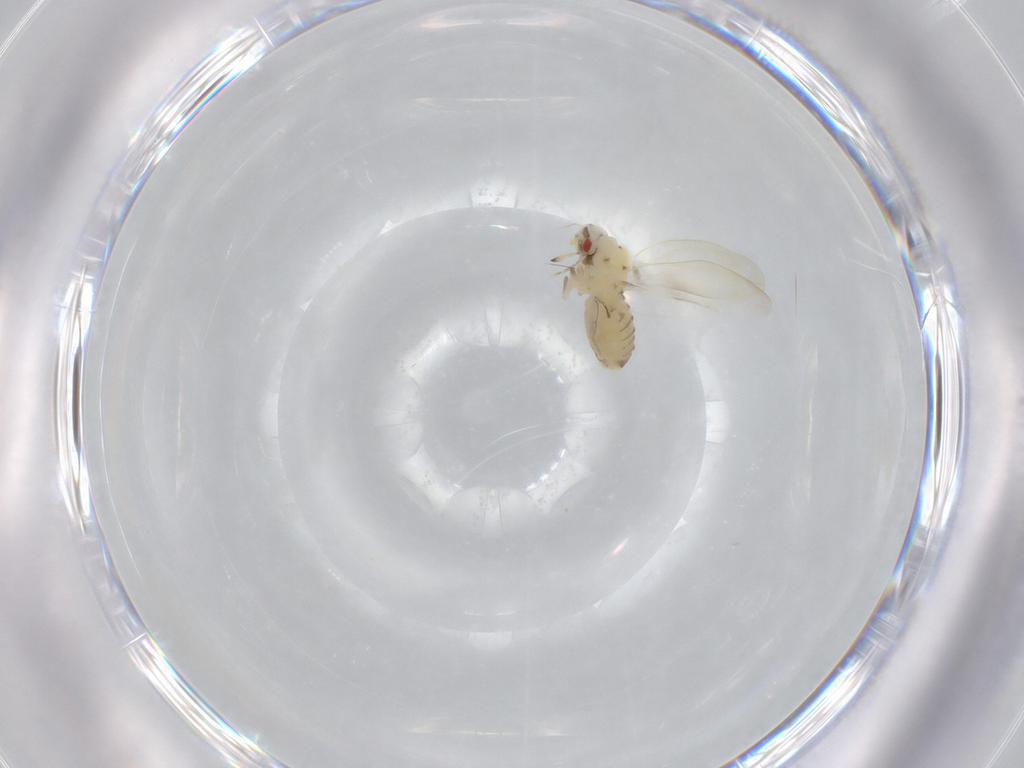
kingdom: Animalia
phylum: Arthropoda
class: Insecta
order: Hemiptera
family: Aleyrodidae
